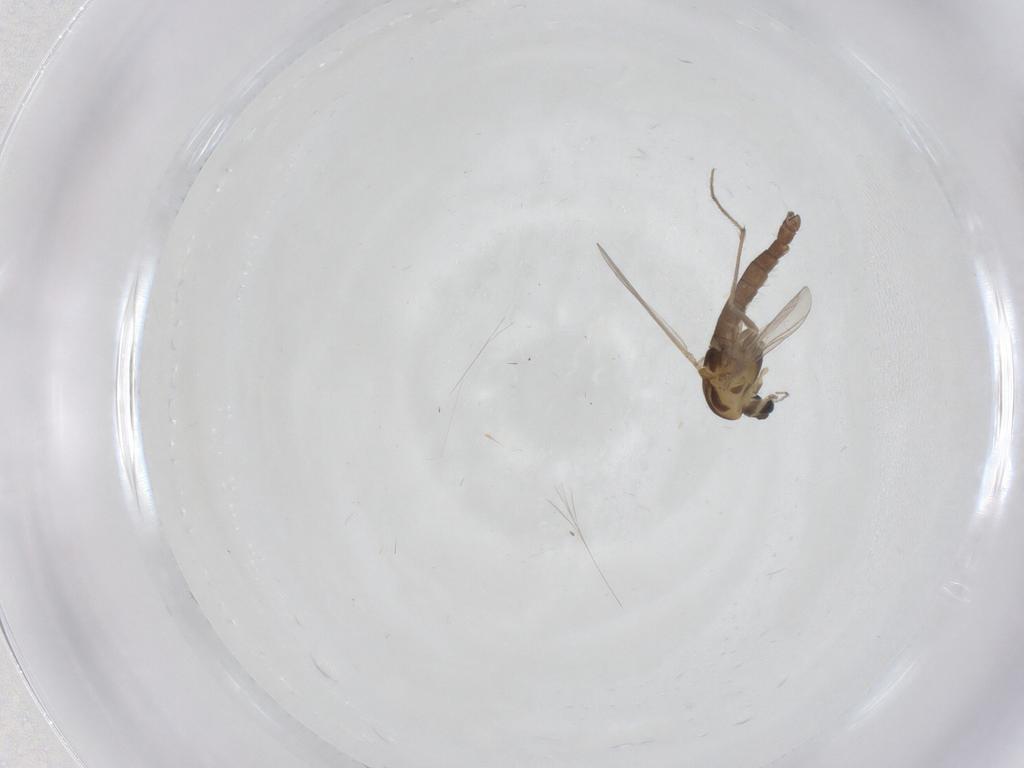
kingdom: Animalia
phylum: Arthropoda
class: Insecta
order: Diptera
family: Chironomidae
